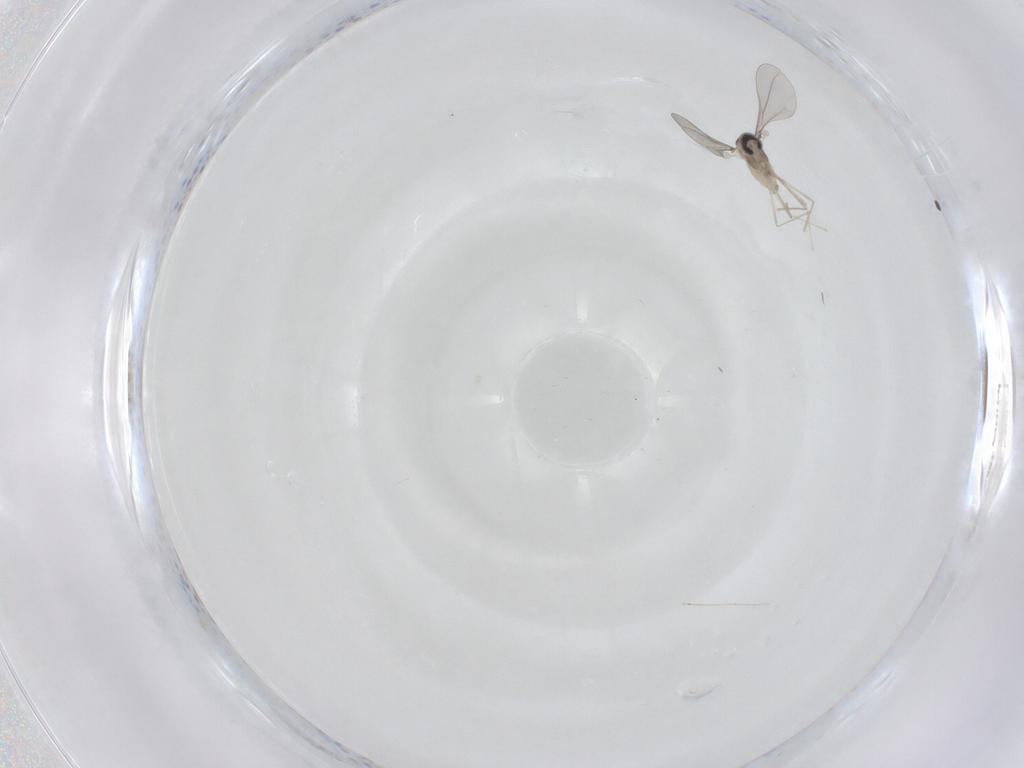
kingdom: Animalia
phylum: Arthropoda
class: Insecta
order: Diptera
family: Cecidomyiidae
